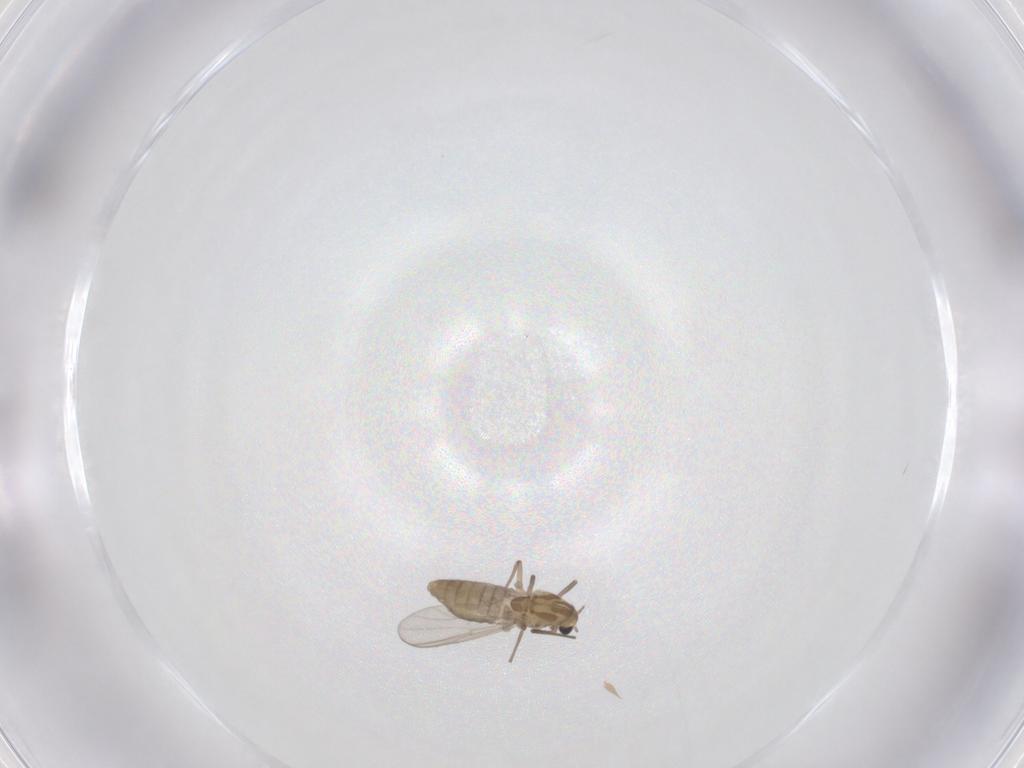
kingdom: Animalia
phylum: Arthropoda
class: Insecta
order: Diptera
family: Chironomidae
